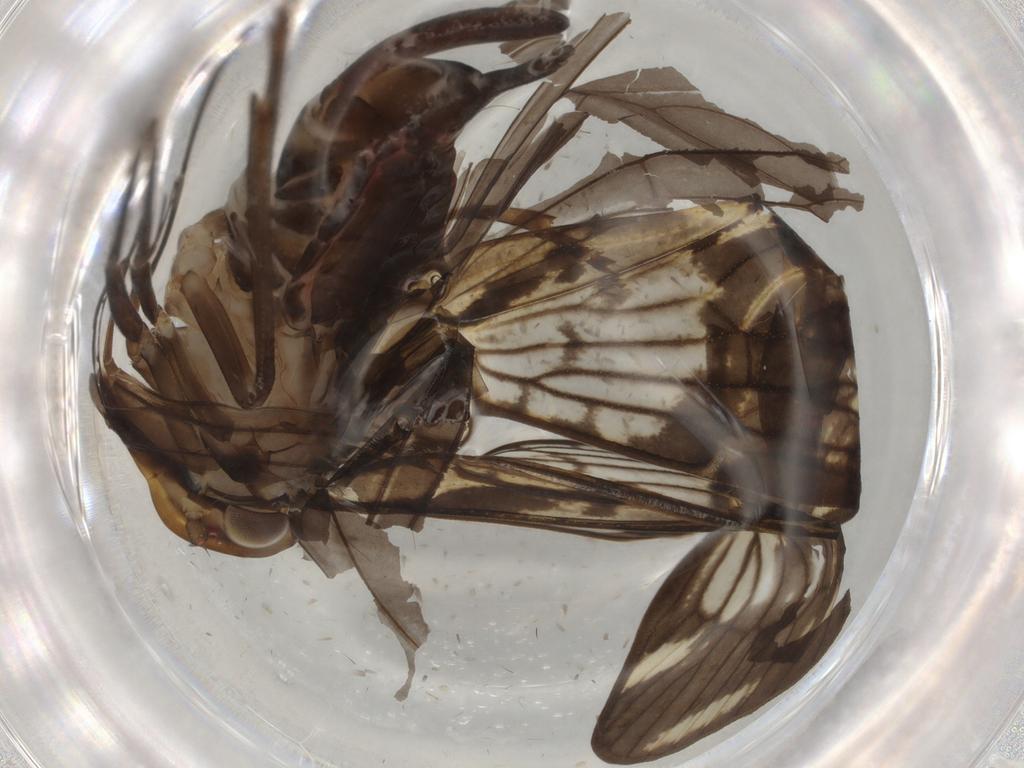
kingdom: Animalia
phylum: Arthropoda
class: Insecta
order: Hemiptera
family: Cixiidae
